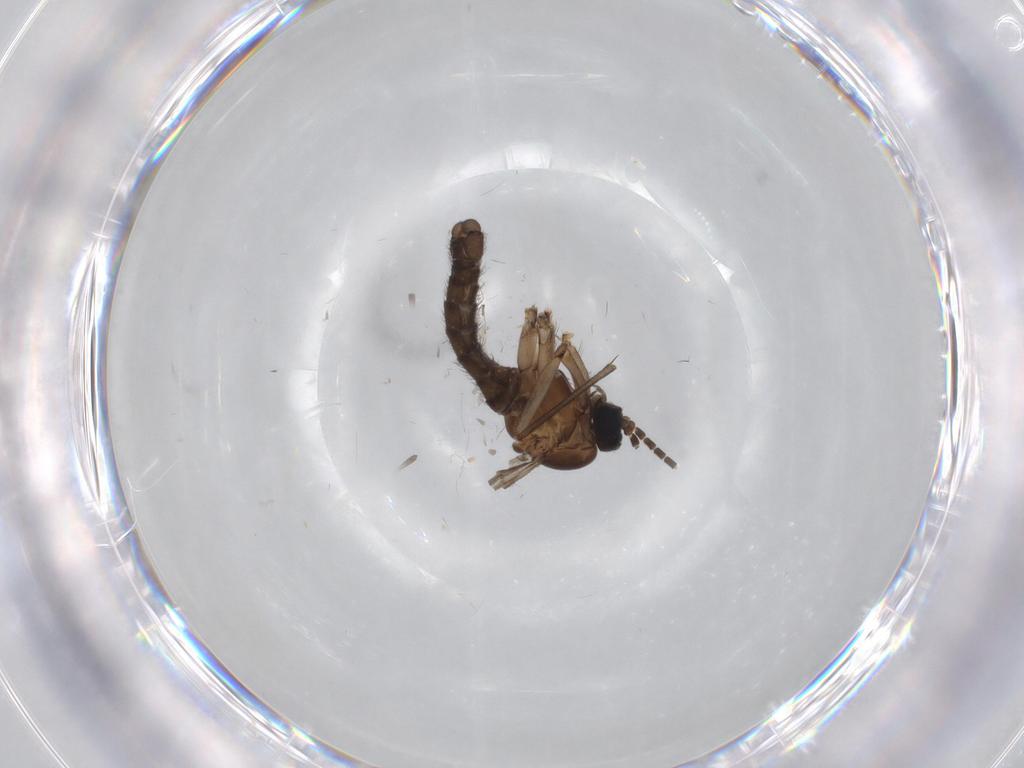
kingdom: Animalia
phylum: Arthropoda
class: Insecta
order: Diptera
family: Sciaridae
